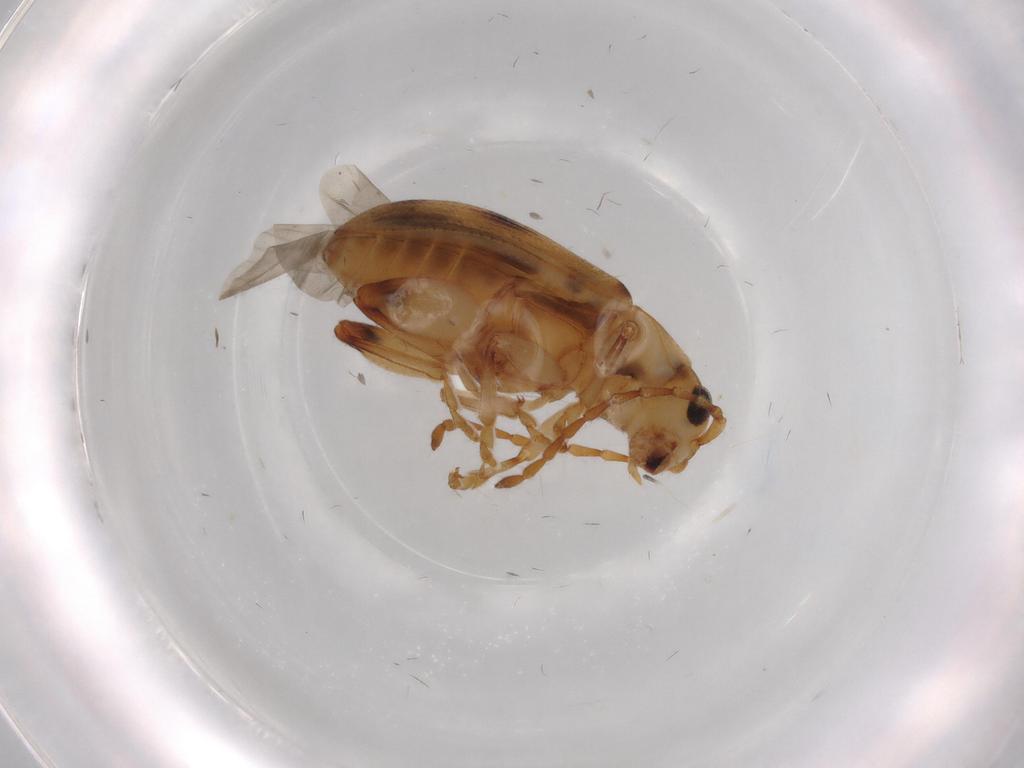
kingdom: Animalia
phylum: Arthropoda
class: Insecta
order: Coleoptera
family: Chrysomelidae
